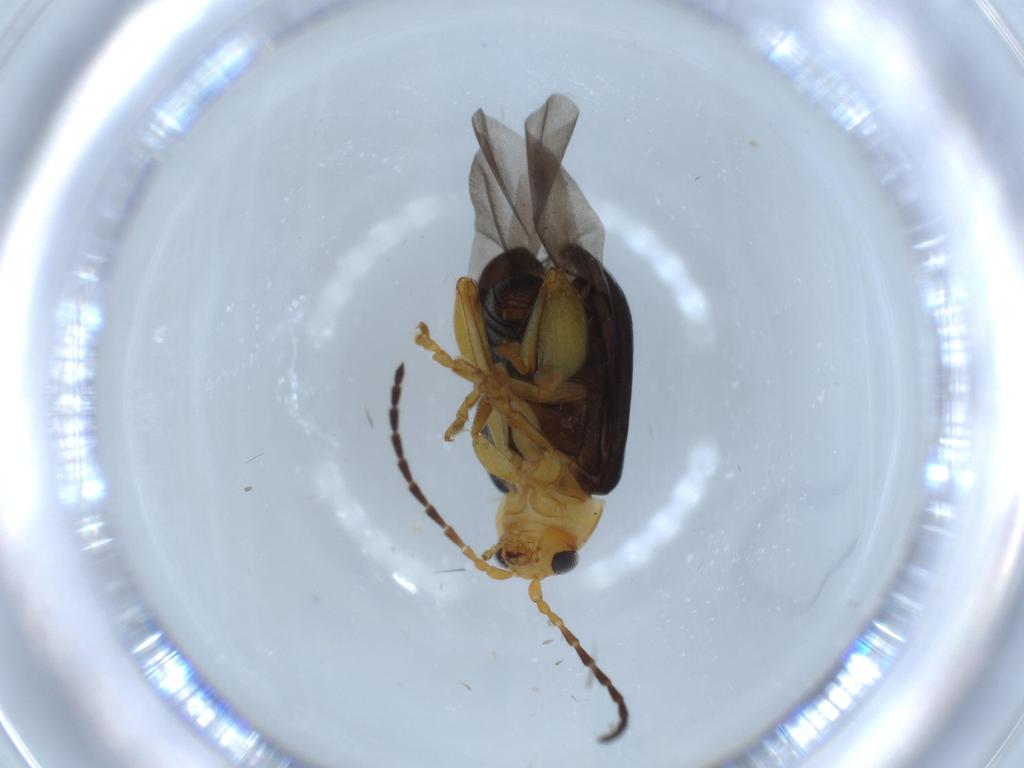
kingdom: Animalia
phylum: Arthropoda
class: Insecta
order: Coleoptera
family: Chrysomelidae
